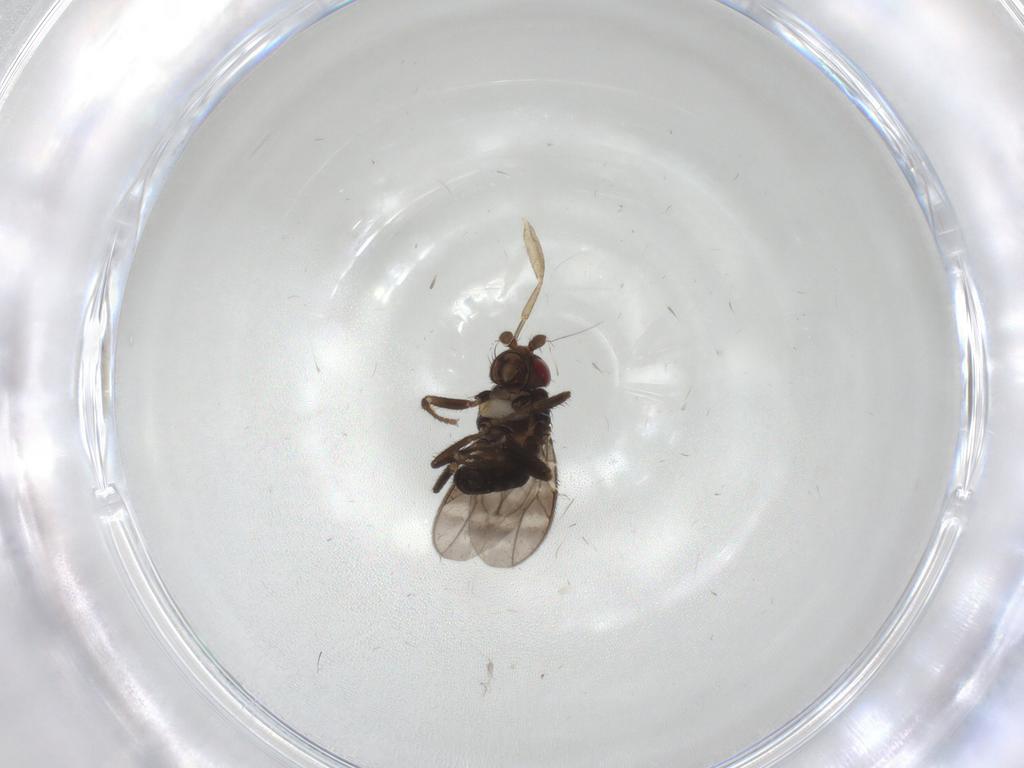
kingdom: Animalia
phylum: Arthropoda
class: Insecta
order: Diptera
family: Sphaeroceridae
